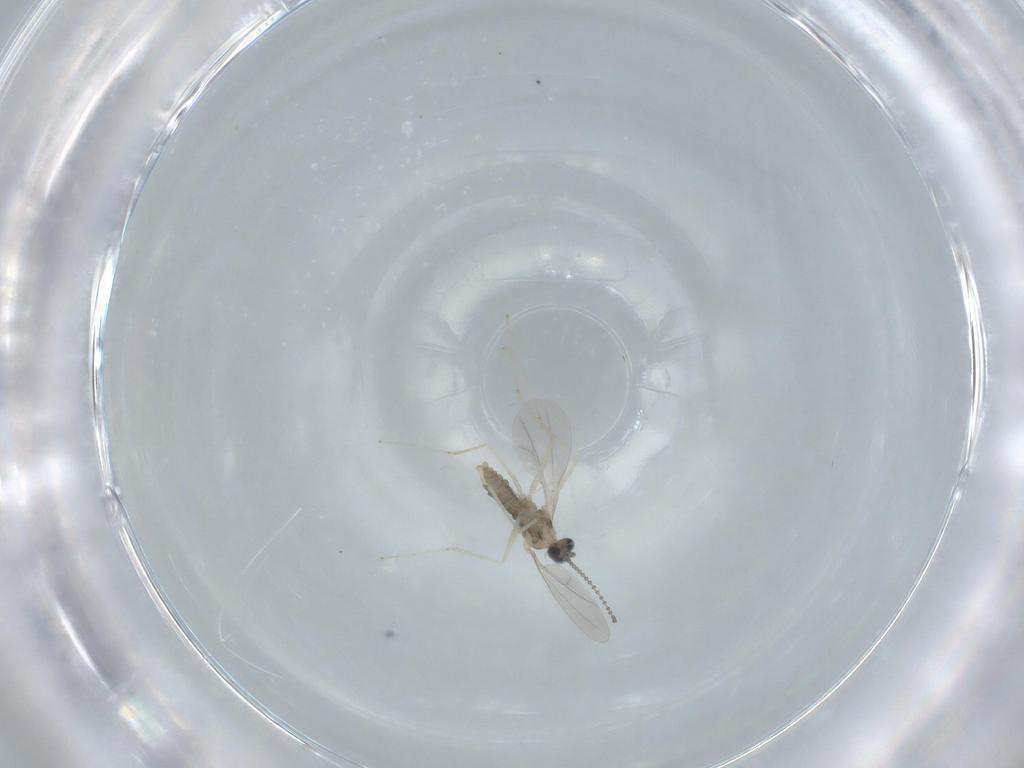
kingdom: Animalia
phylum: Arthropoda
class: Insecta
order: Diptera
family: Cecidomyiidae
